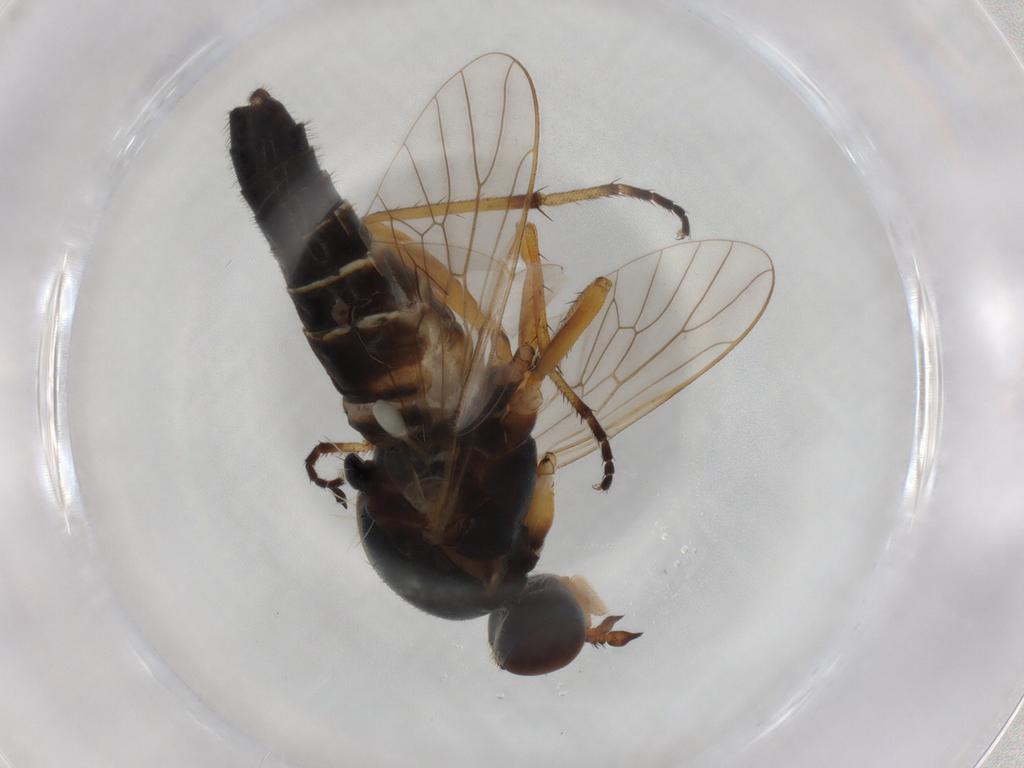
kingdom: Animalia
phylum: Arthropoda
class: Insecta
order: Diptera
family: Therevidae
